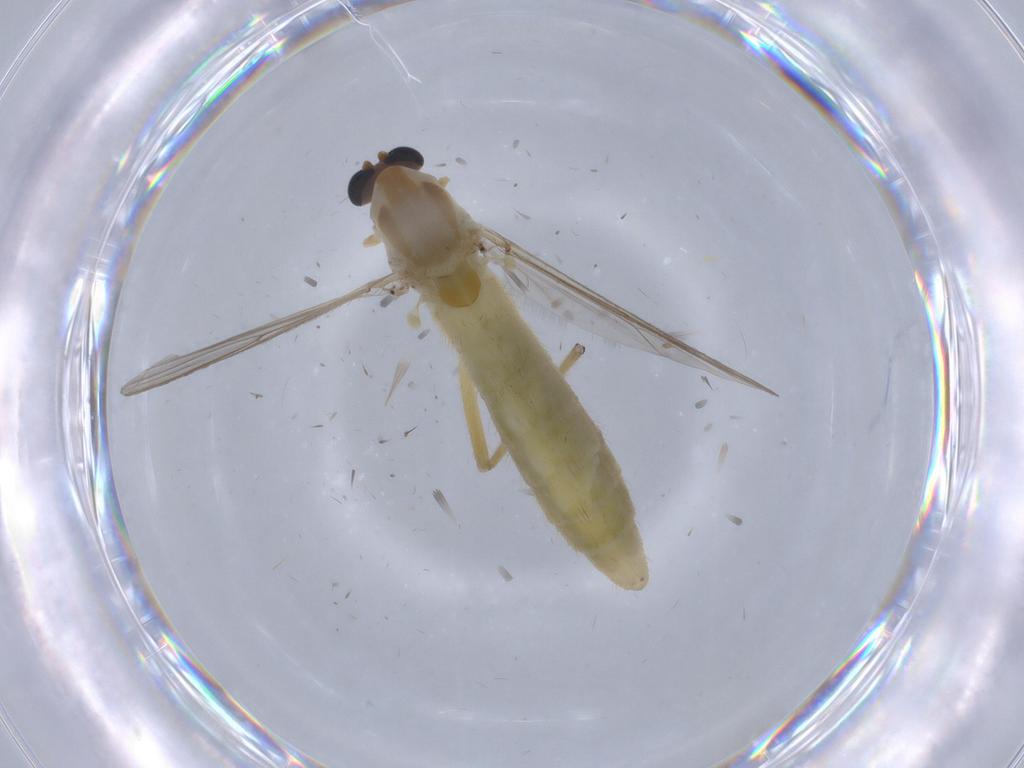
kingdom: Animalia
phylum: Arthropoda
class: Insecta
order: Diptera
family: Chironomidae
